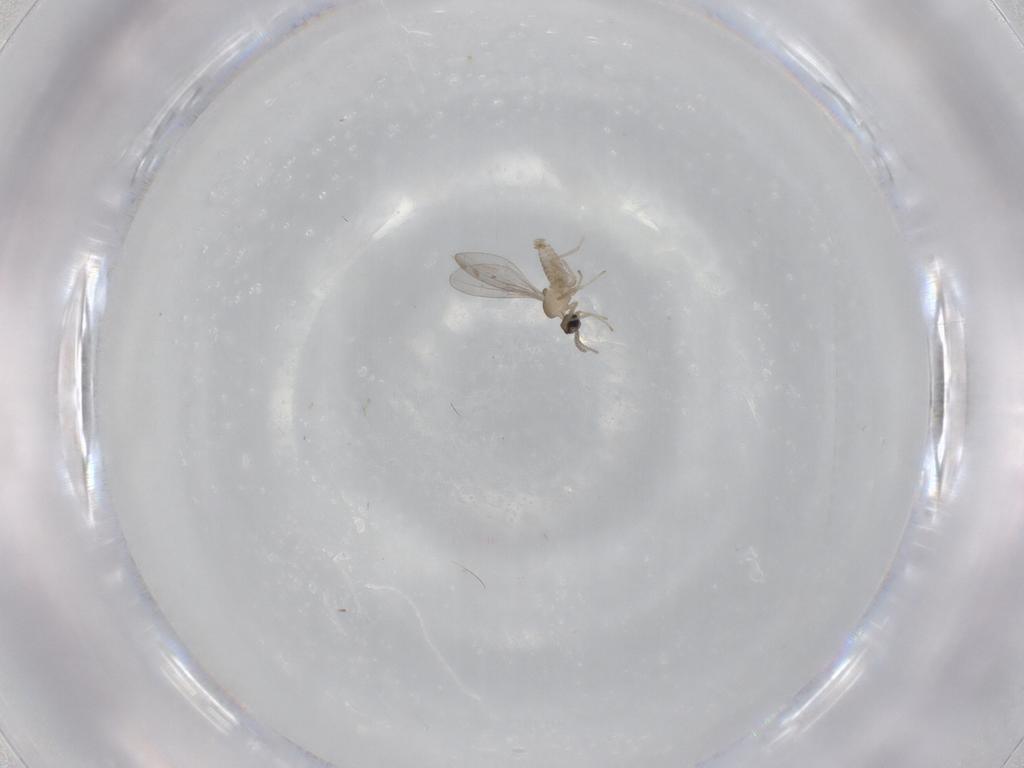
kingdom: Animalia
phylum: Arthropoda
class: Insecta
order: Diptera
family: Cecidomyiidae
